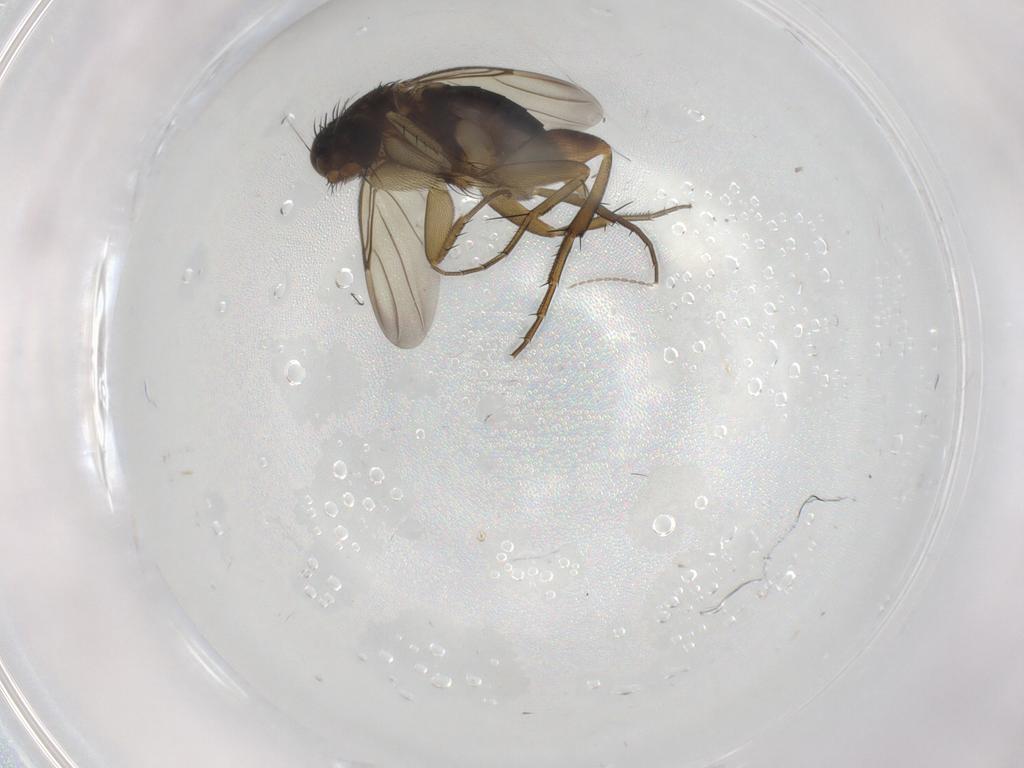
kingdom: Animalia
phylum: Arthropoda
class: Insecta
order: Diptera
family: Phoridae
